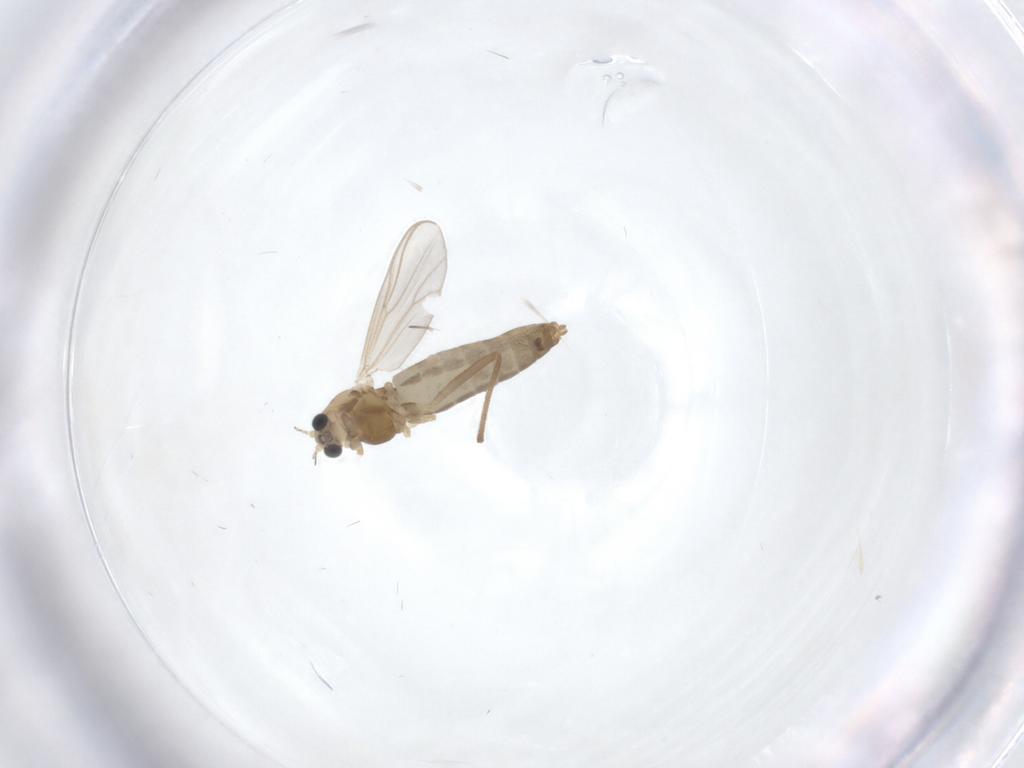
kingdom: Animalia
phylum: Arthropoda
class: Insecta
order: Diptera
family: Chironomidae
